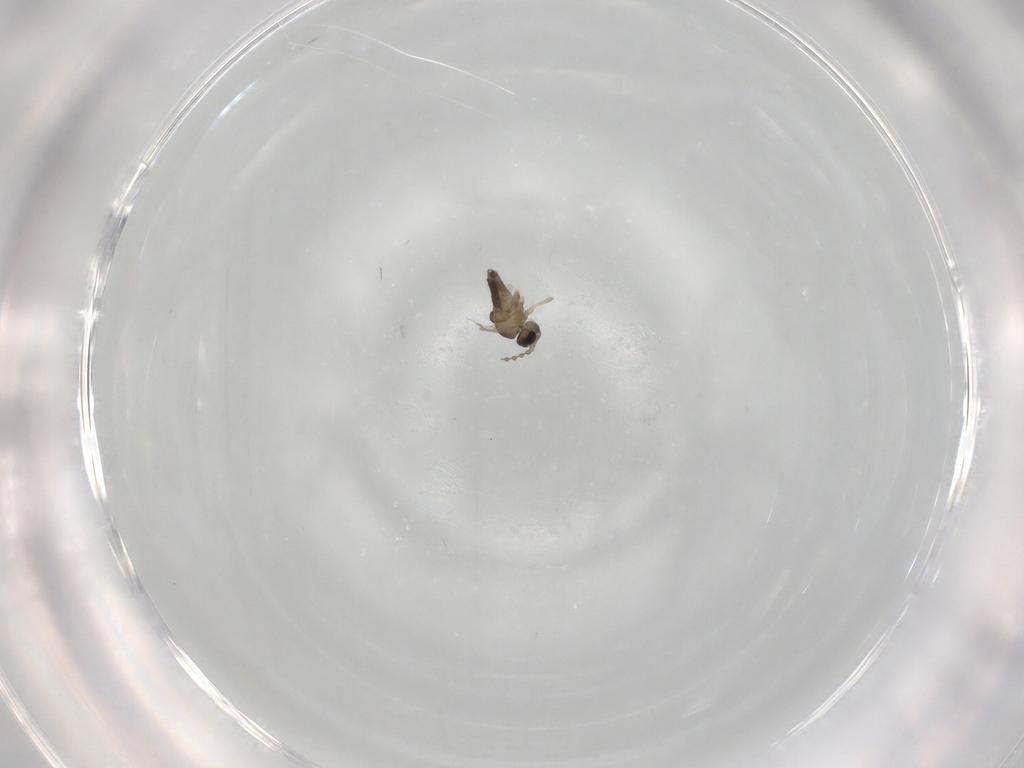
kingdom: Animalia
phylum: Arthropoda
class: Insecta
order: Diptera
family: Cecidomyiidae
